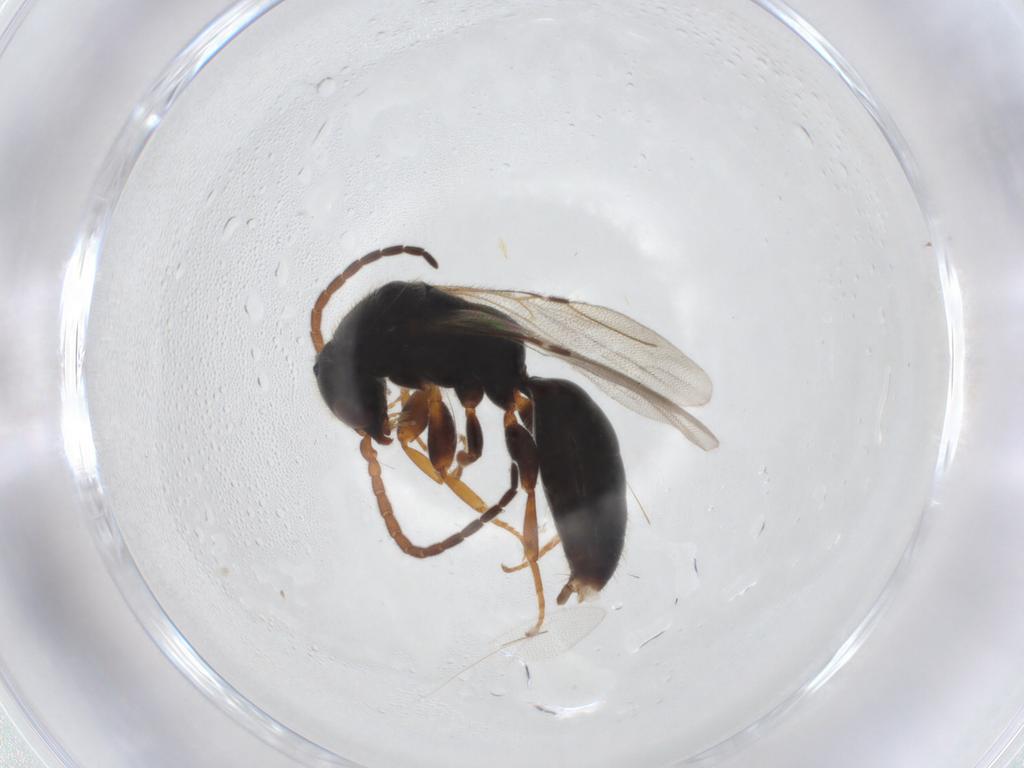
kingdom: Animalia
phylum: Arthropoda
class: Insecta
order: Hymenoptera
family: Bethylidae
